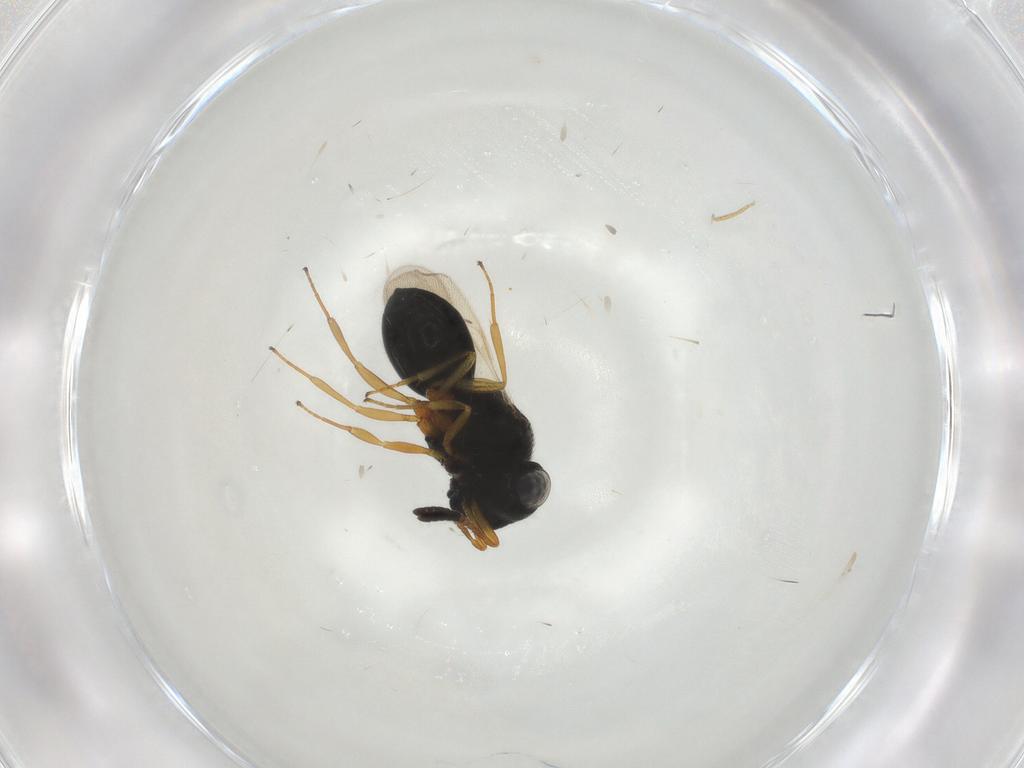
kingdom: Animalia
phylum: Arthropoda
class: Insecta
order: Hymenoptera
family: Scelionidae
